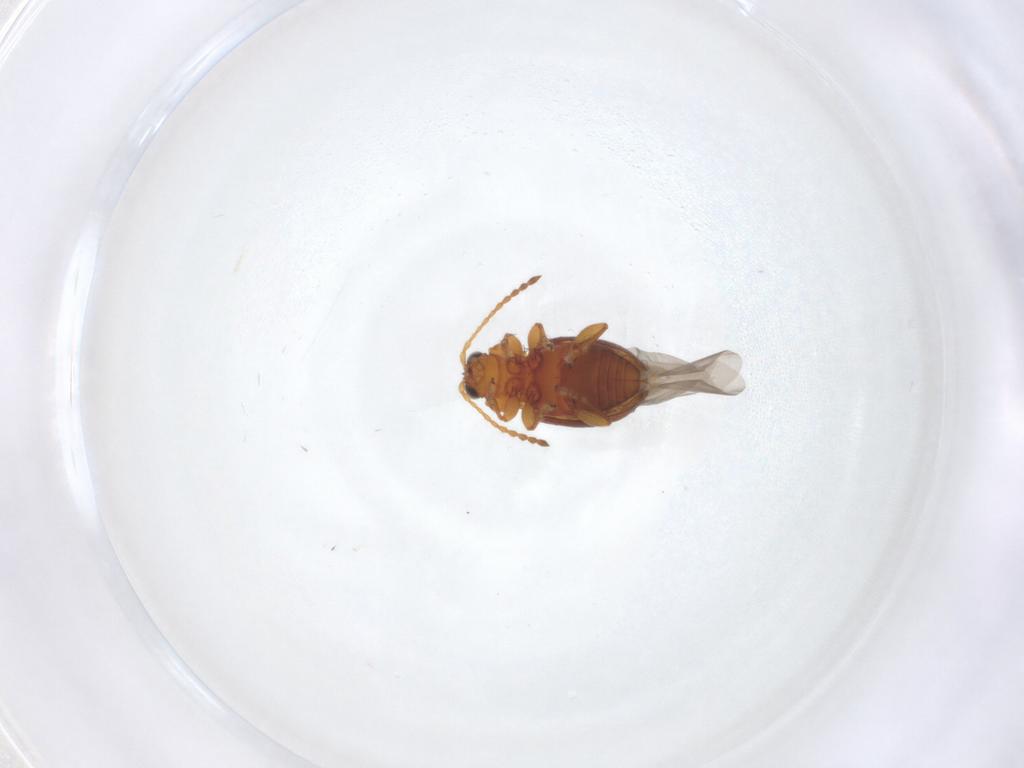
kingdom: Animalia
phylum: Arthropoda
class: Insecta
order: Coleoptera
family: Chrysomelidae
